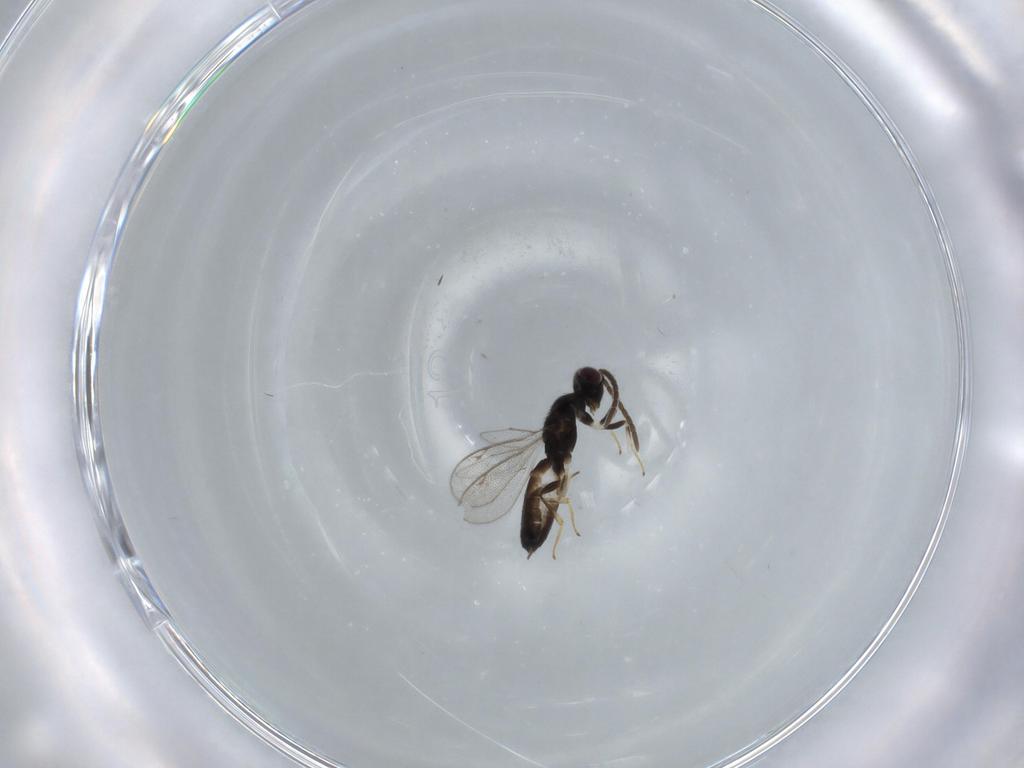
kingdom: Animalia
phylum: Arthropoda
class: Insecta
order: Hymenoptera
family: Eupelmidae
